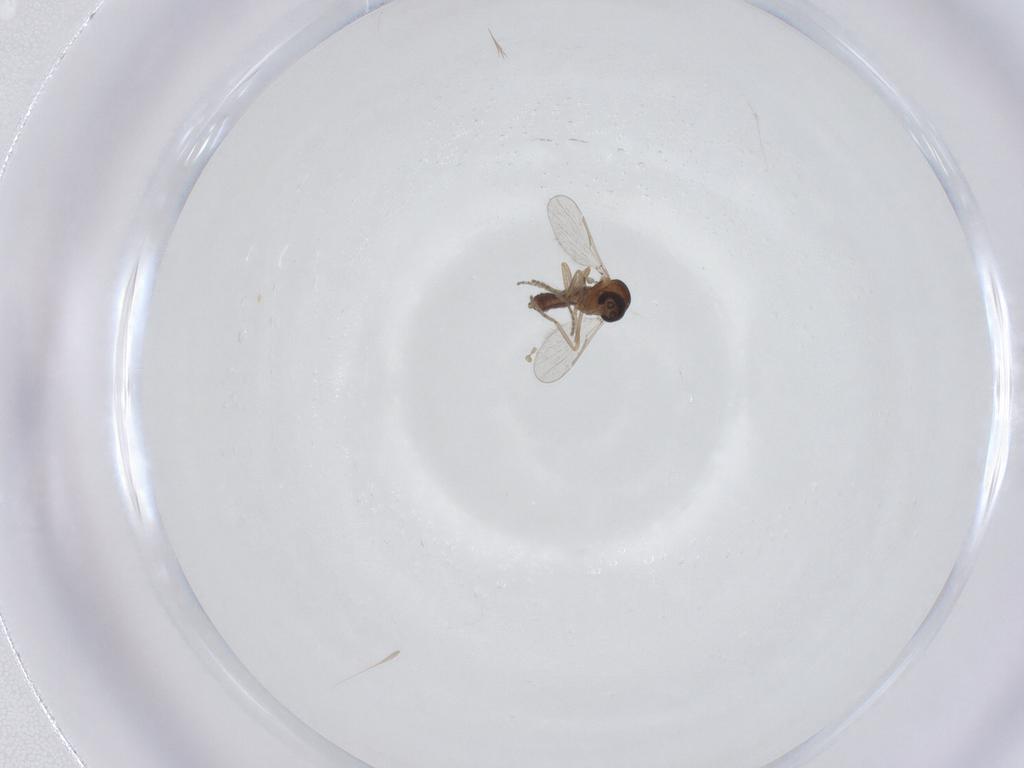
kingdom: Animalia
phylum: Arthropoda
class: Insecta
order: Diptera
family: Ceratopogonidae
